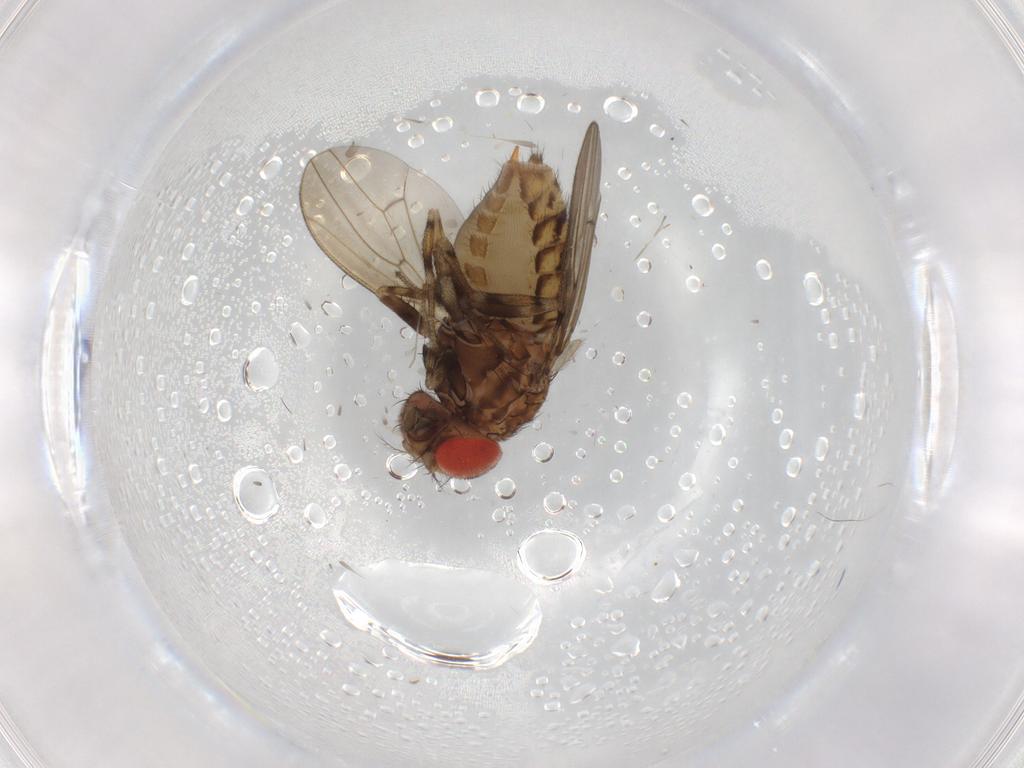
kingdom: Animalia
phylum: Arthropoda
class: Insecta
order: Diptera
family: Drosophilidae
